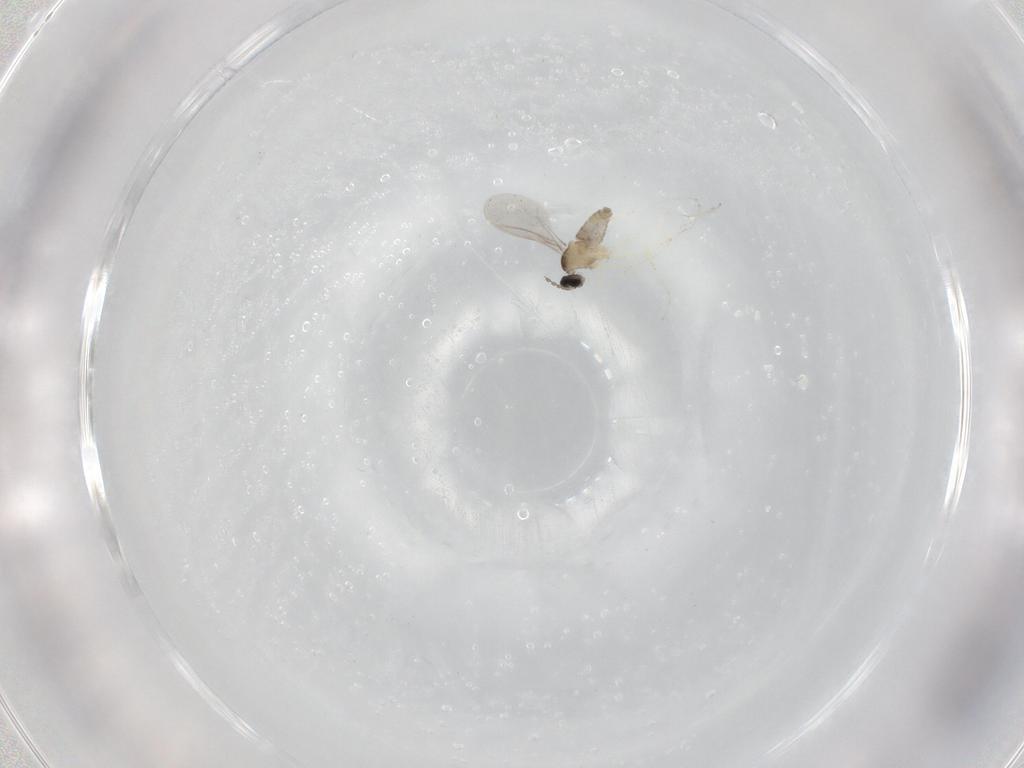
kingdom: Animalia
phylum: Arthropoda
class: Insecta
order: Diptera
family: Cecidomyiidae
